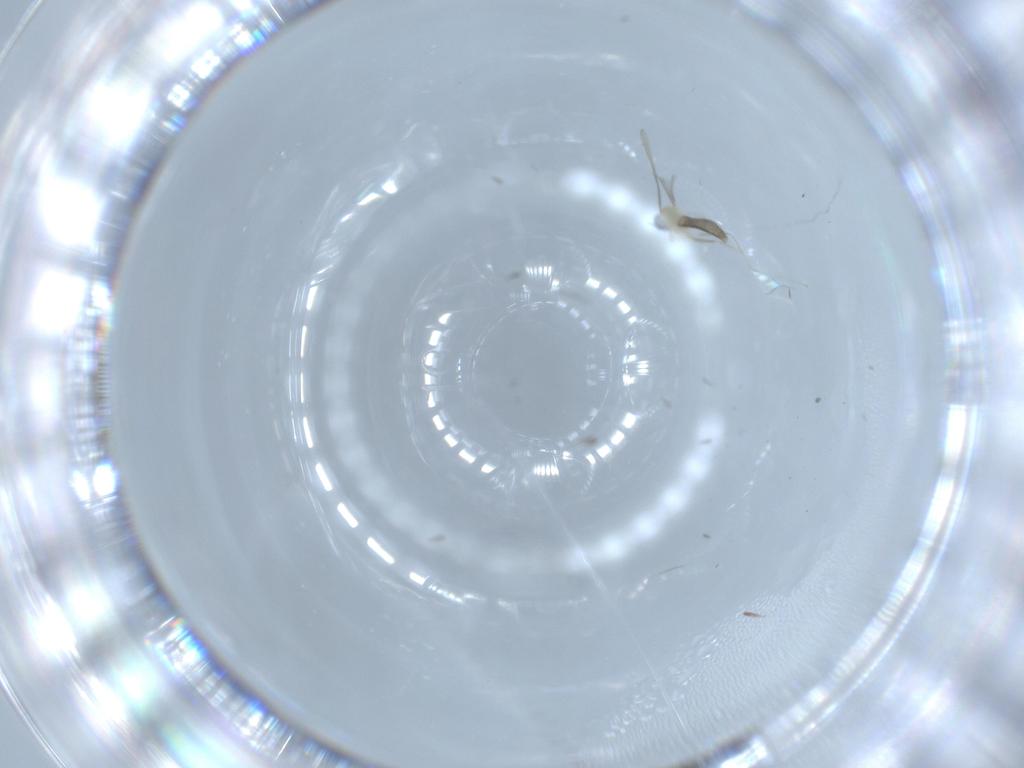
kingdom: Animalia
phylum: Arthropoda
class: Insecta
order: Diptera
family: Cecidomyiidae
